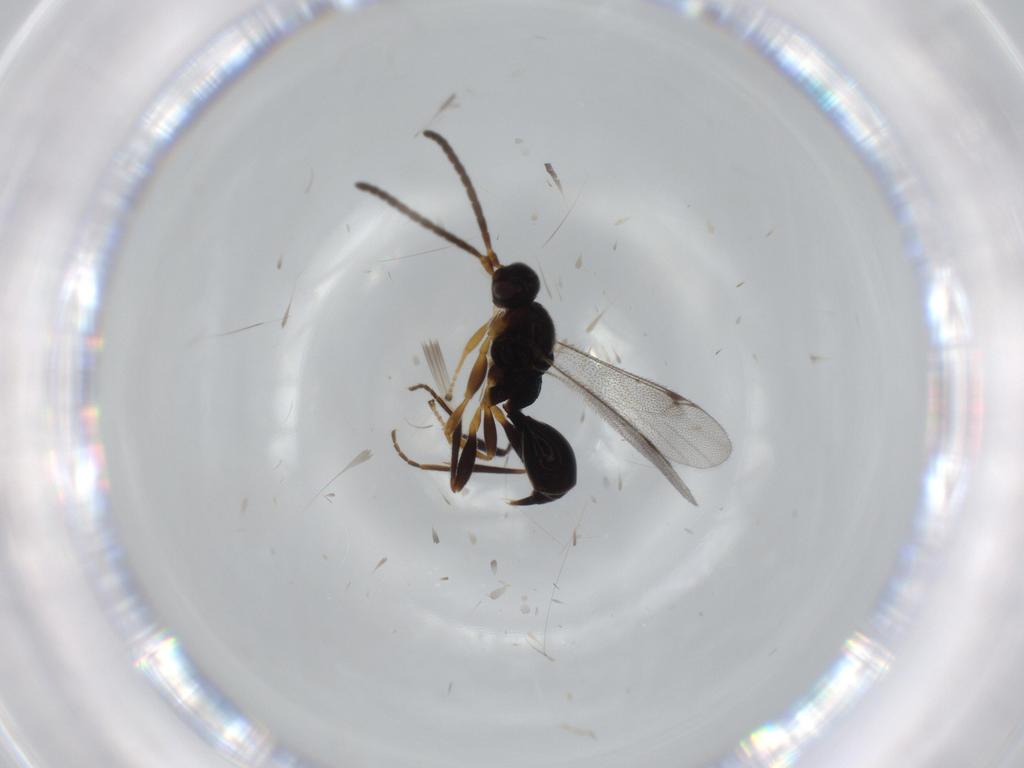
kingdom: Animalia
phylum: Arthropoda
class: Insecta
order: Hymenoptera
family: Proctotrupidae
